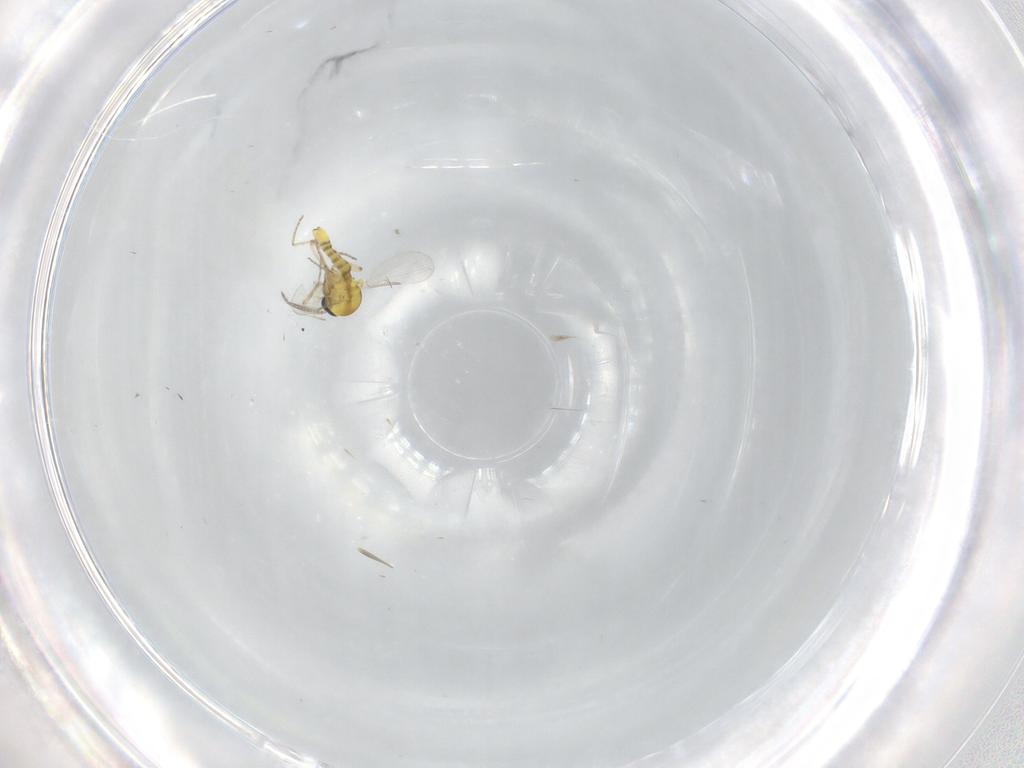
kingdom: Animalia
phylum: Arthropoda
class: Insecta
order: Diptera
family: Ceratopogonidae
